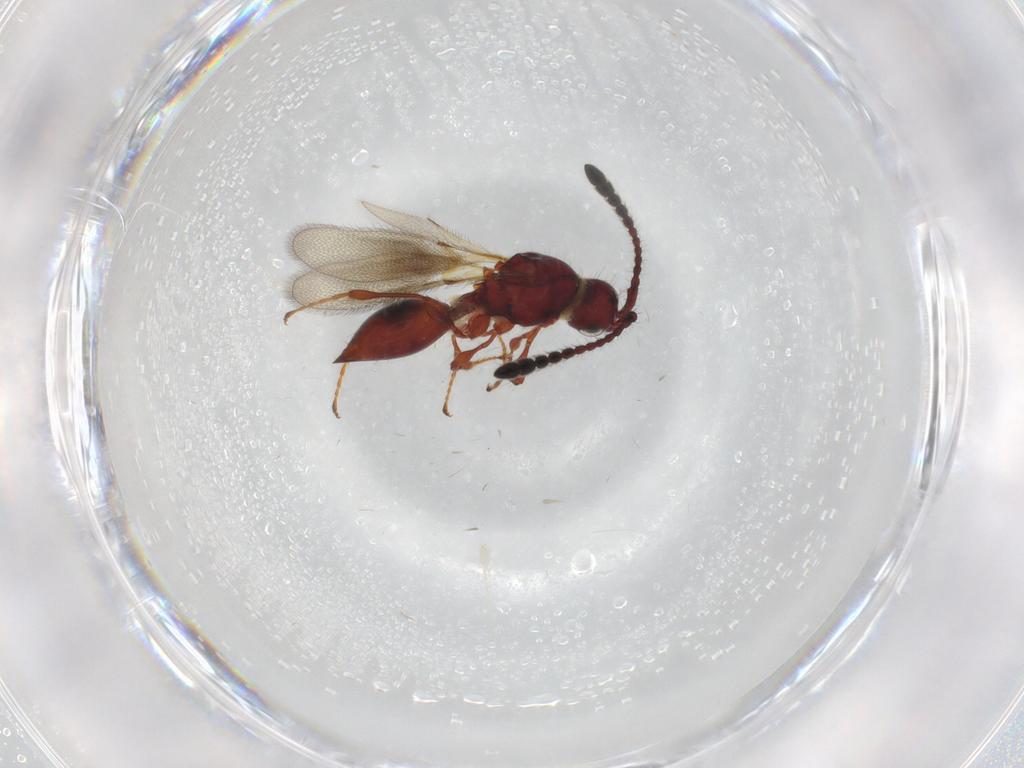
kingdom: Animalia
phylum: Arthropoda
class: Insecta
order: Hymenoptera
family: Diapriidae
